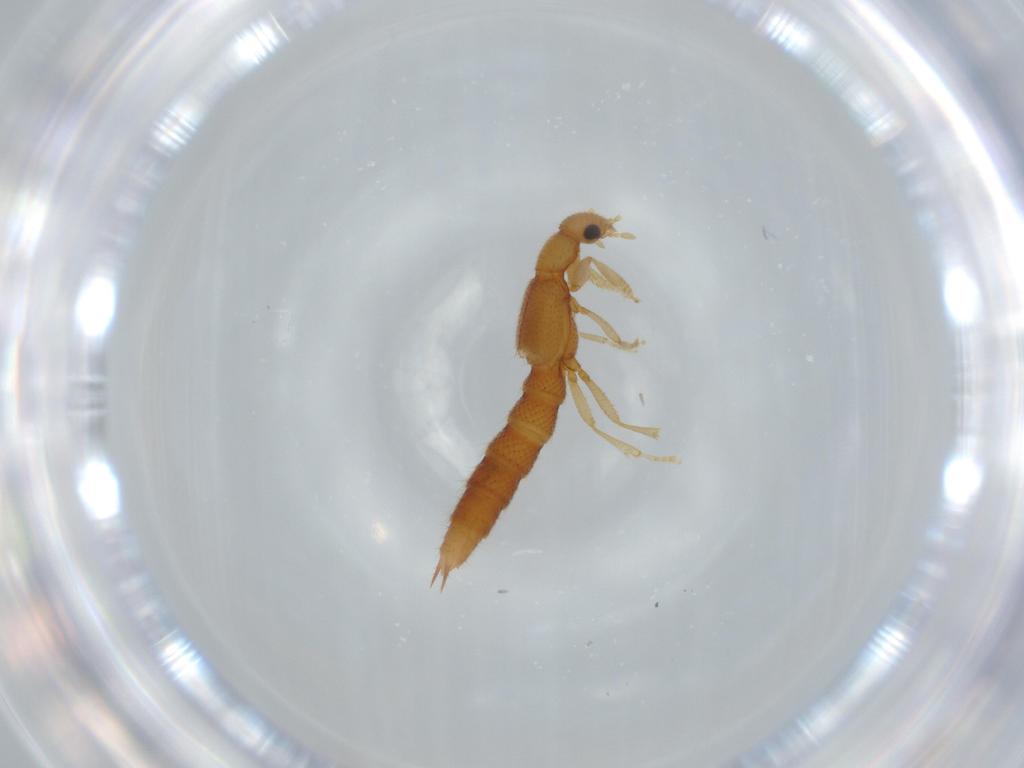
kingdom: Animalia
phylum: Arthropoda
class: Insecta
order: Coleoptera
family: Staphylinidae
